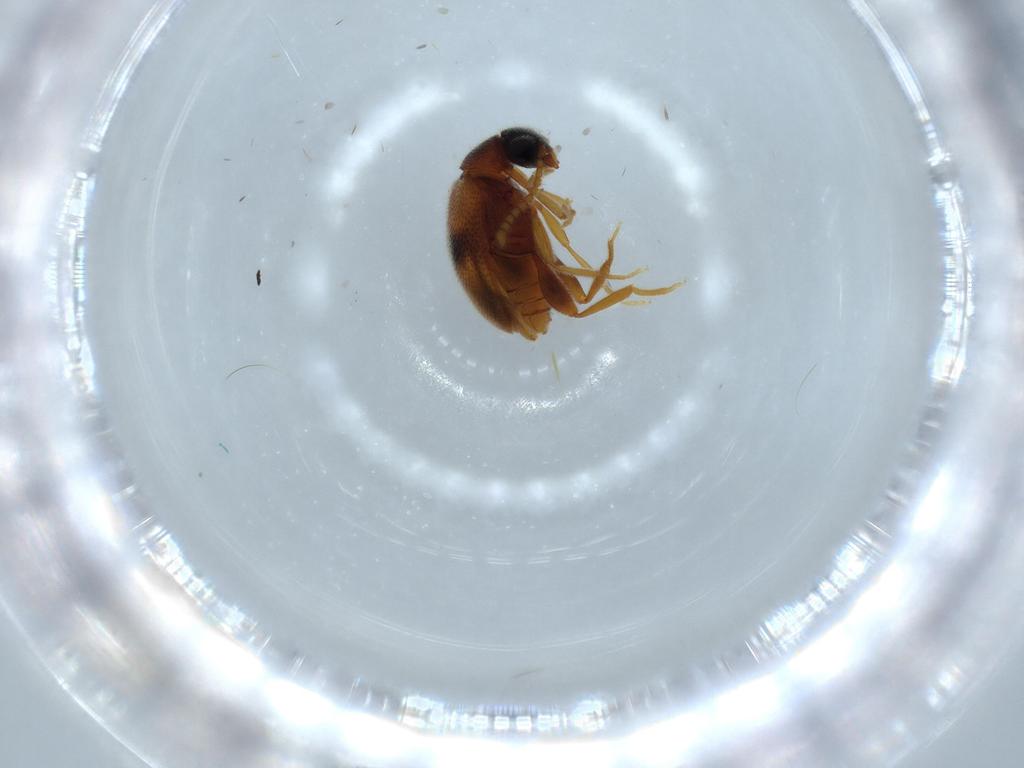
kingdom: Animalia
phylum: Arthropoda
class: Insecta
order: Coleoptera
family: Aderidae
